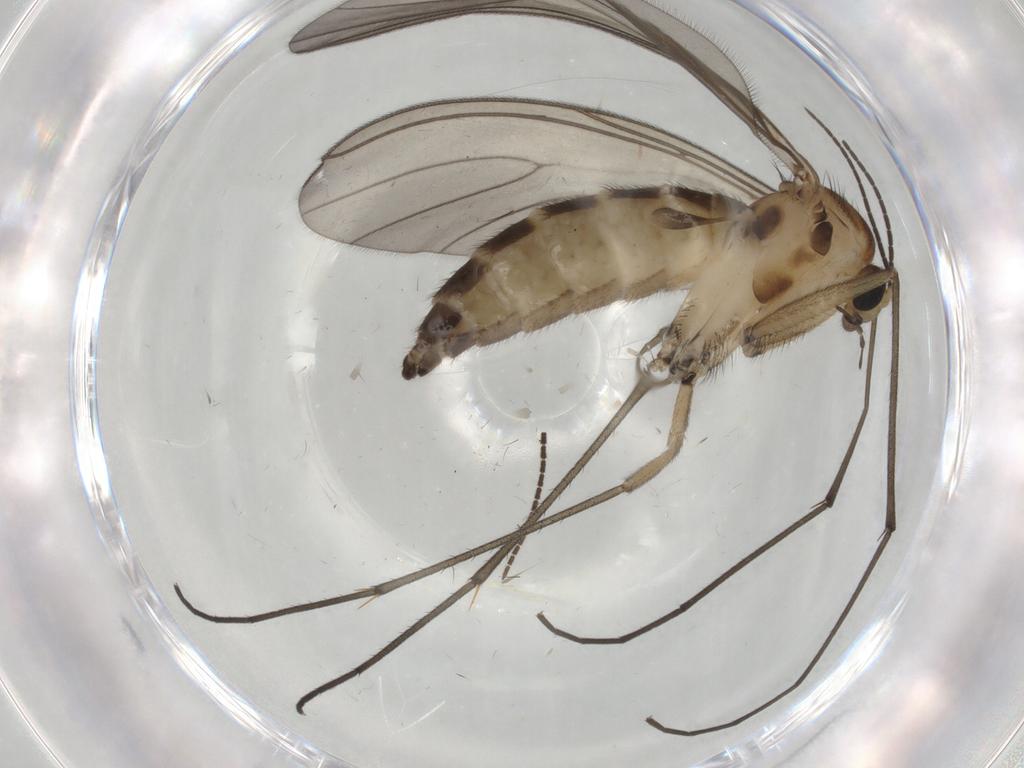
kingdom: Animalia
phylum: Arthropoda
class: Insecta
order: Diptera
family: Sciaridae
